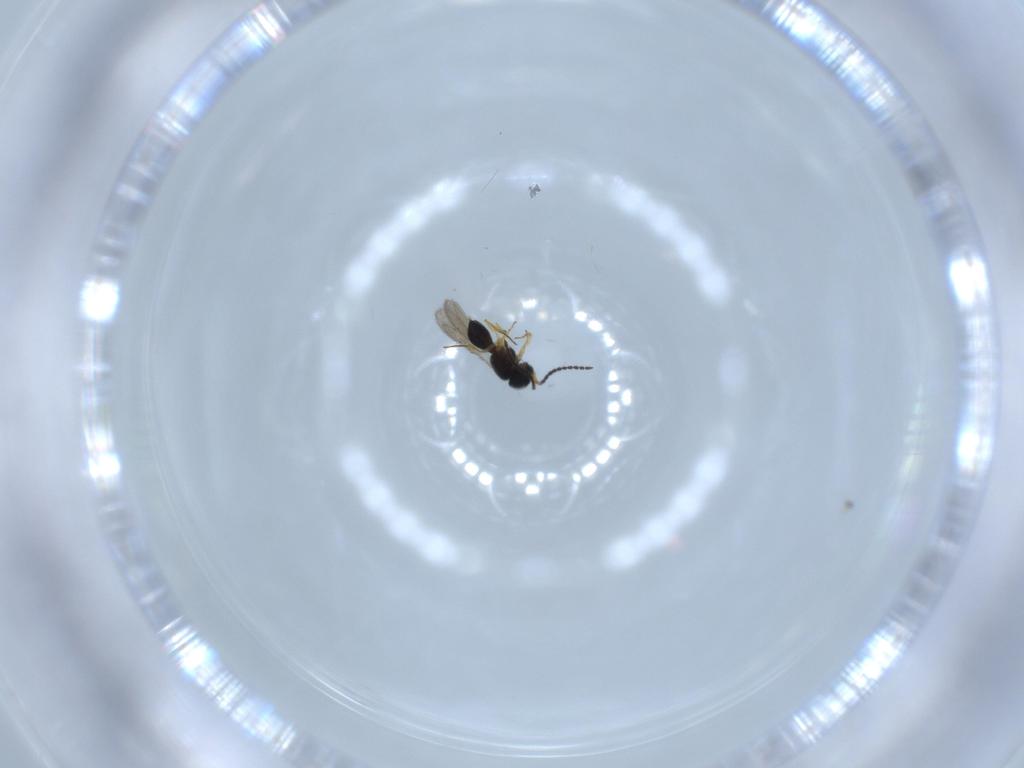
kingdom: Animalia
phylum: Arthropoda
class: Insecta
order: Hymenoptera
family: Scelionidae
